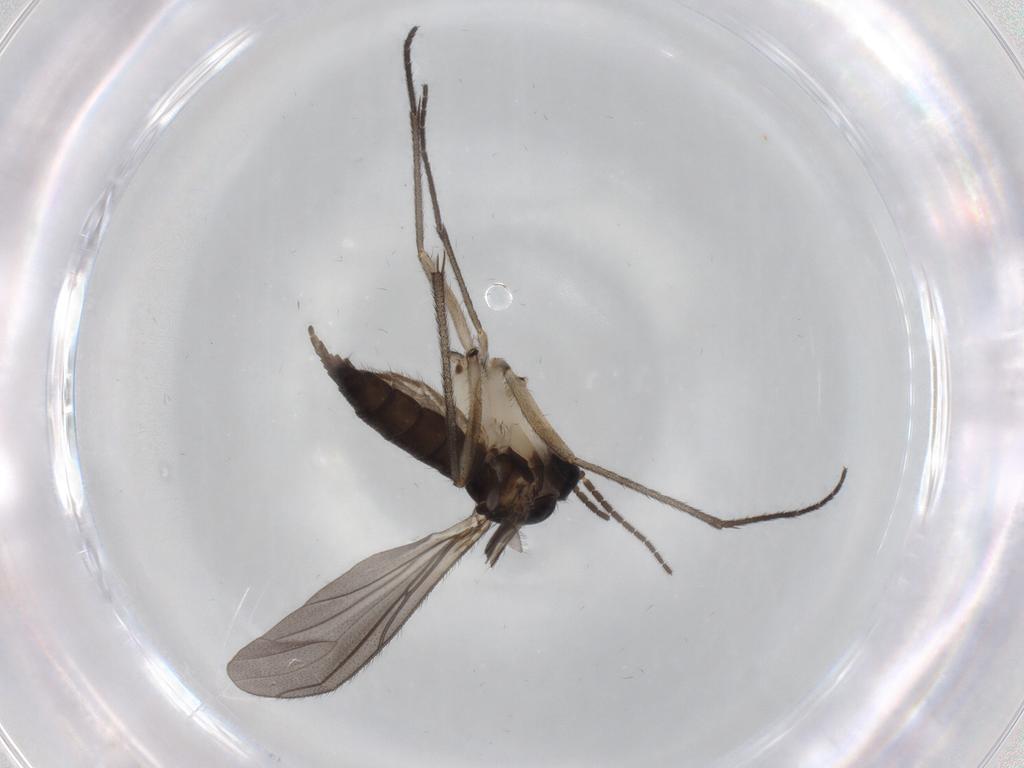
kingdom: Animalia
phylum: Arthropoda
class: Insecta
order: Diptera
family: Sciaridae
